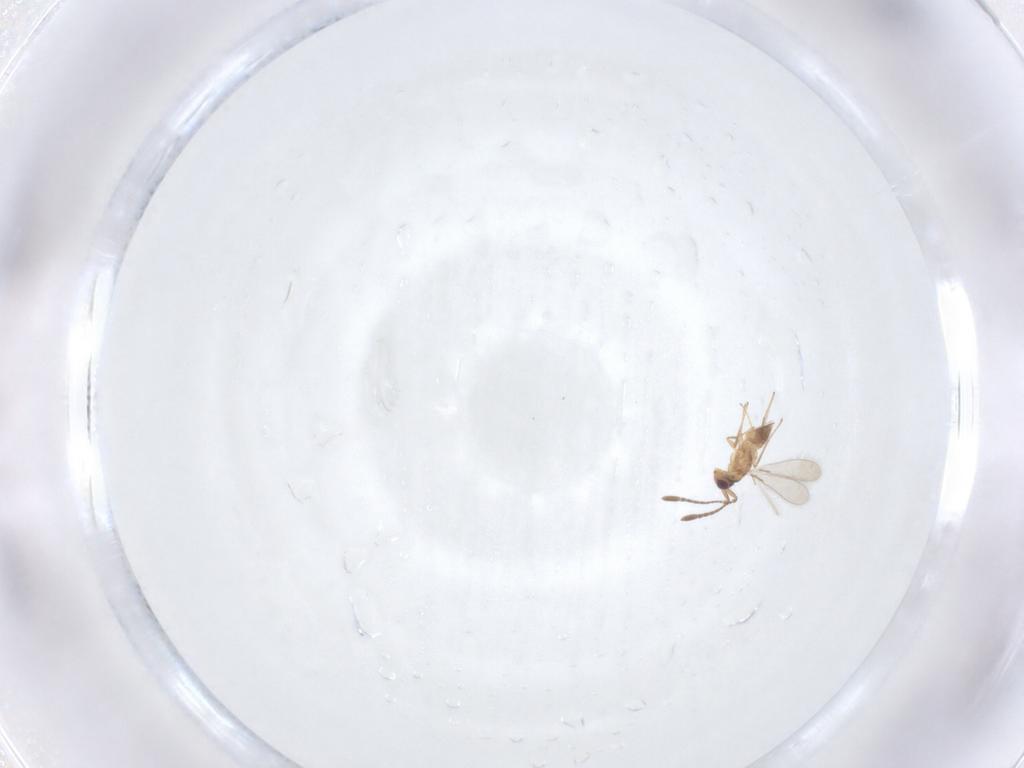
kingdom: Animalia
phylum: Arthropoda
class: Insecta
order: Hymenoptera
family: Mymaridae
